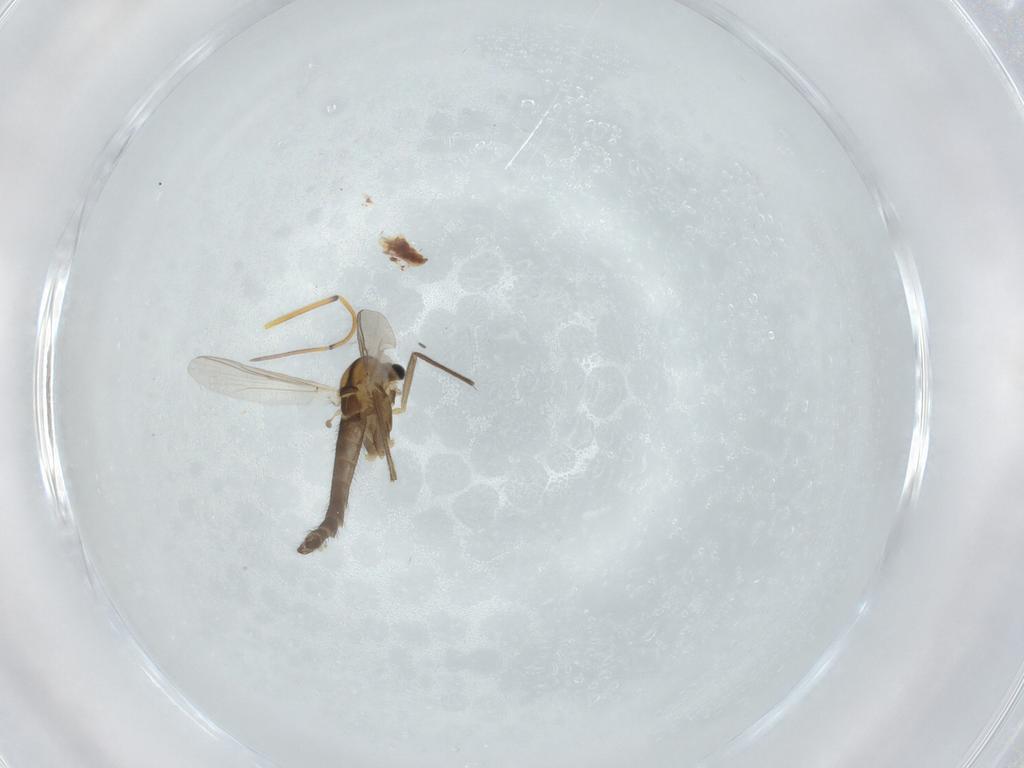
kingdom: Animalia
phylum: Arthropoda
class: Insecta
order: Diptera
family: Chironomidae
